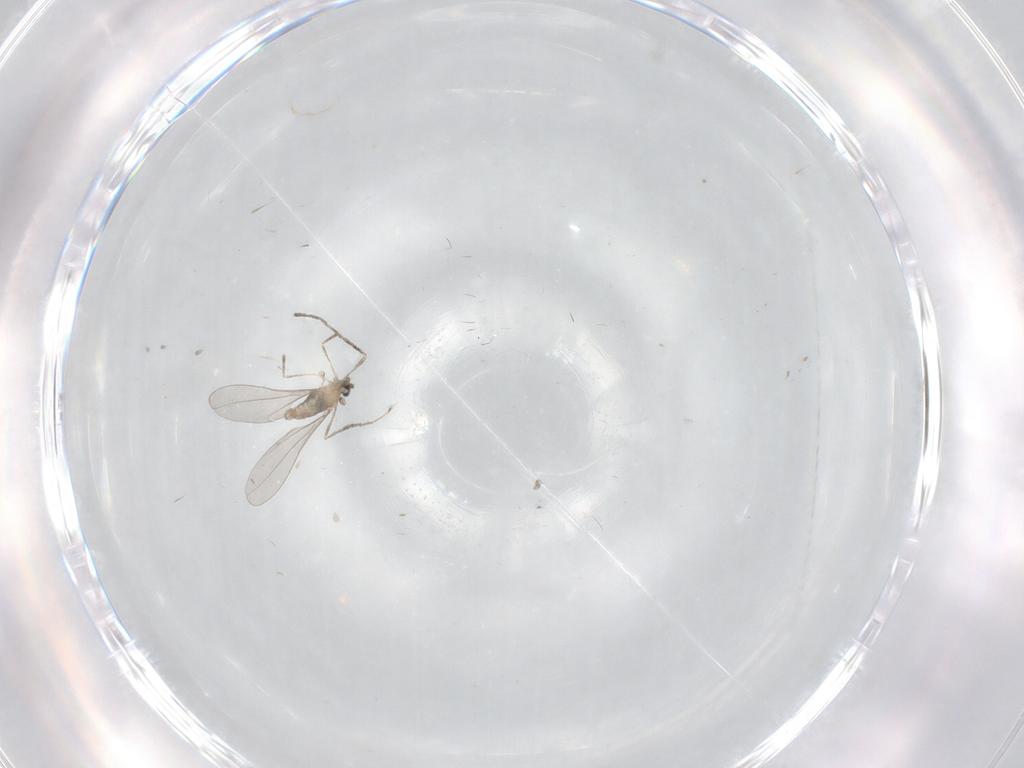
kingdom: Animalia
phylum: Arthropoda
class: Insecta
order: Diptera
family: Cecidomyiidae
